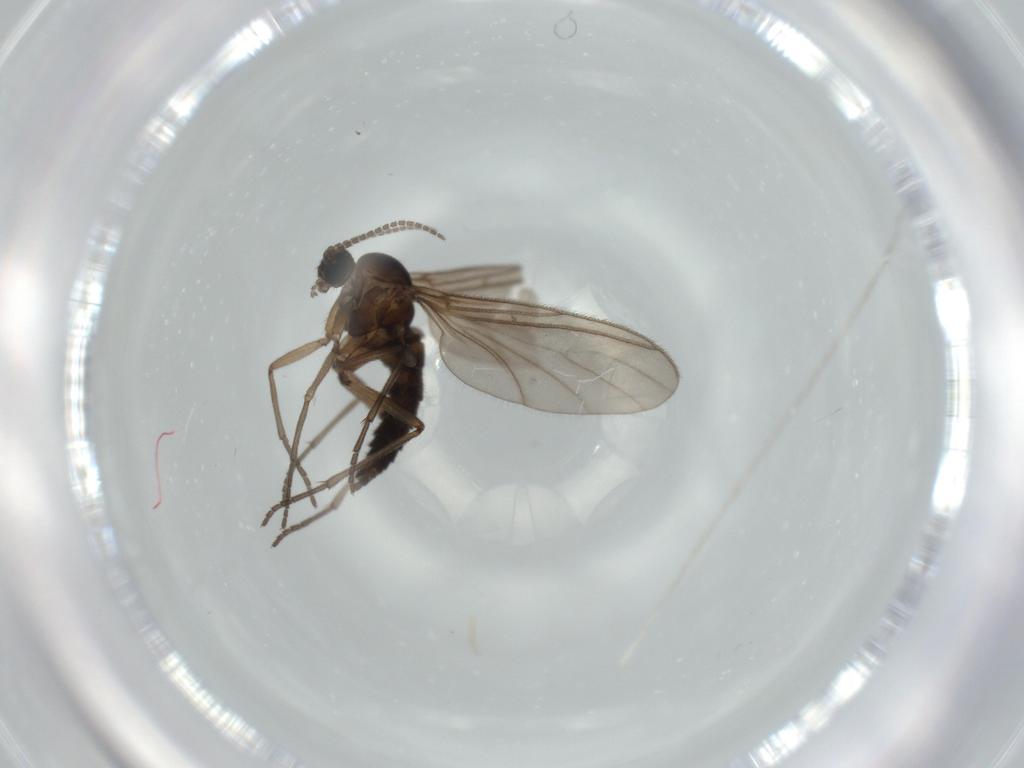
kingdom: Animalia
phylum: Arthropoda
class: Insecta
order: Diptera
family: Sciaridae
